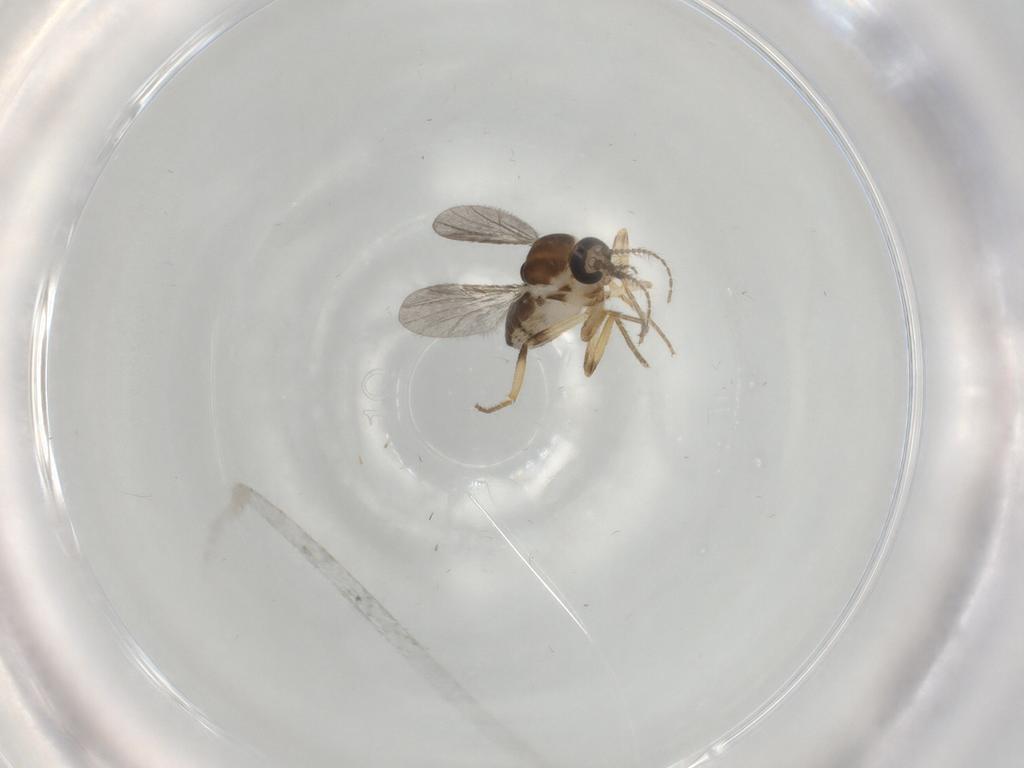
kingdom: Animalia
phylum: Arthropoda
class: Insecta
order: Diptera
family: Ceratopogonidae
